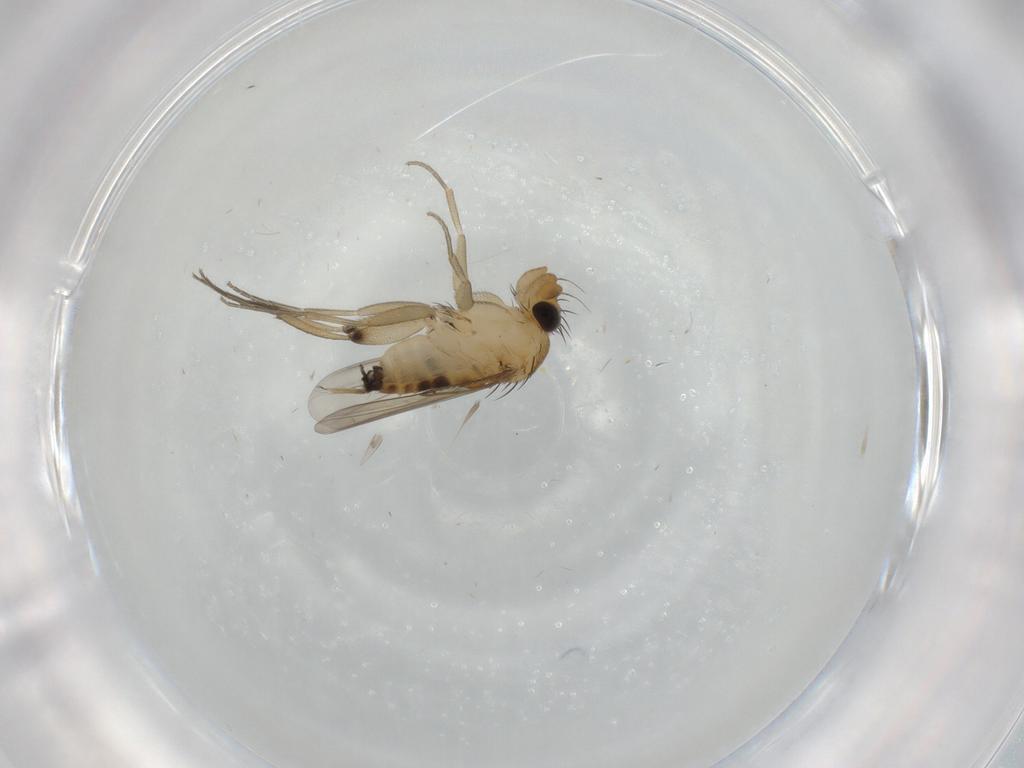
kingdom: Animalia
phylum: Arthropoda
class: Insecta
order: Diptera
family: Phoridae
